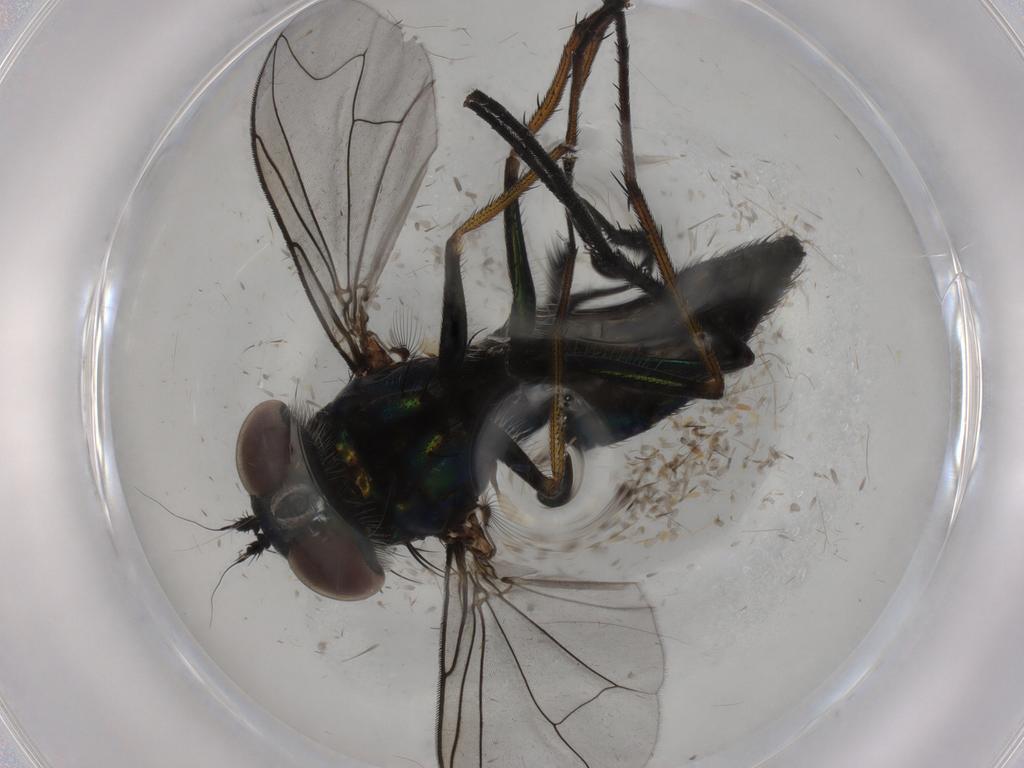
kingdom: Animalia
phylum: Arthropoda
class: Insecta
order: Diptera
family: Dolichopodidae
